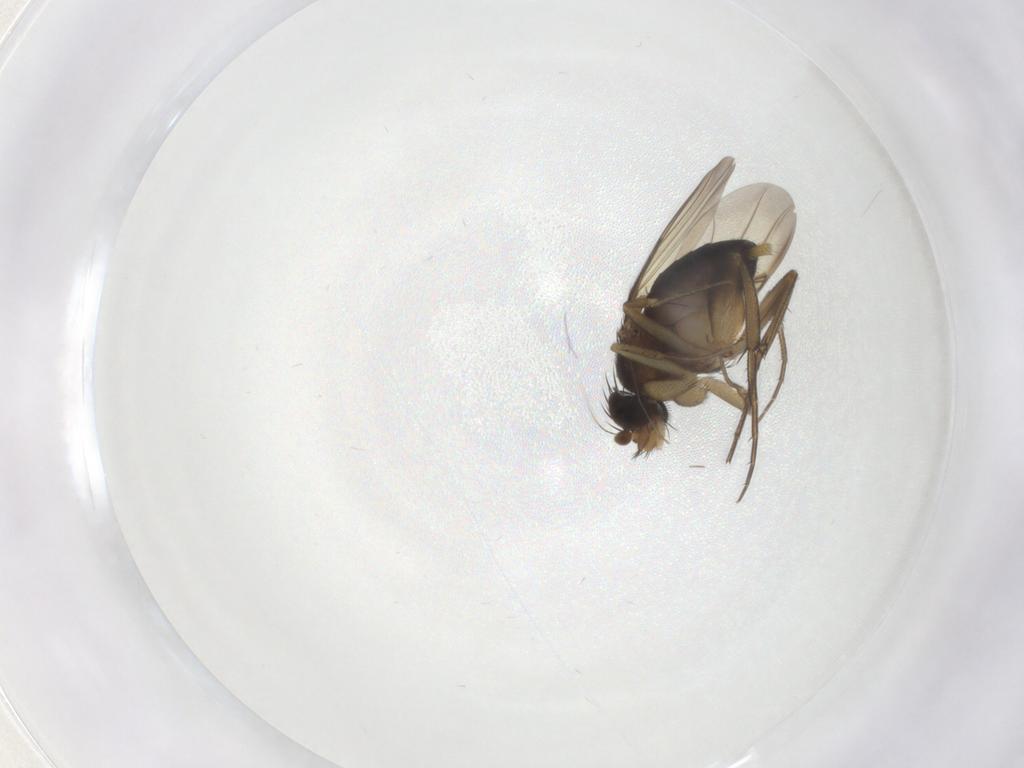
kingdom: Animalia
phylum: Arthropoda
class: Insecta
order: Diptera
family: Phoridae
